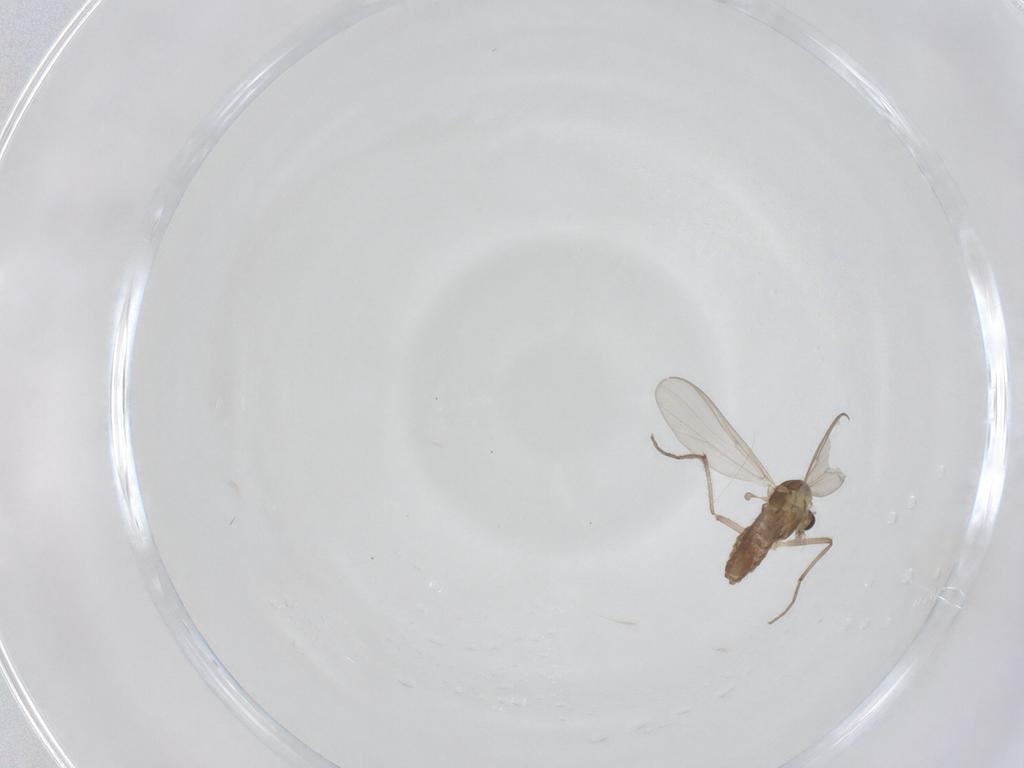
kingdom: Animalia
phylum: Arthropoda
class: Insecta
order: Diptera
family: Chironomidae
